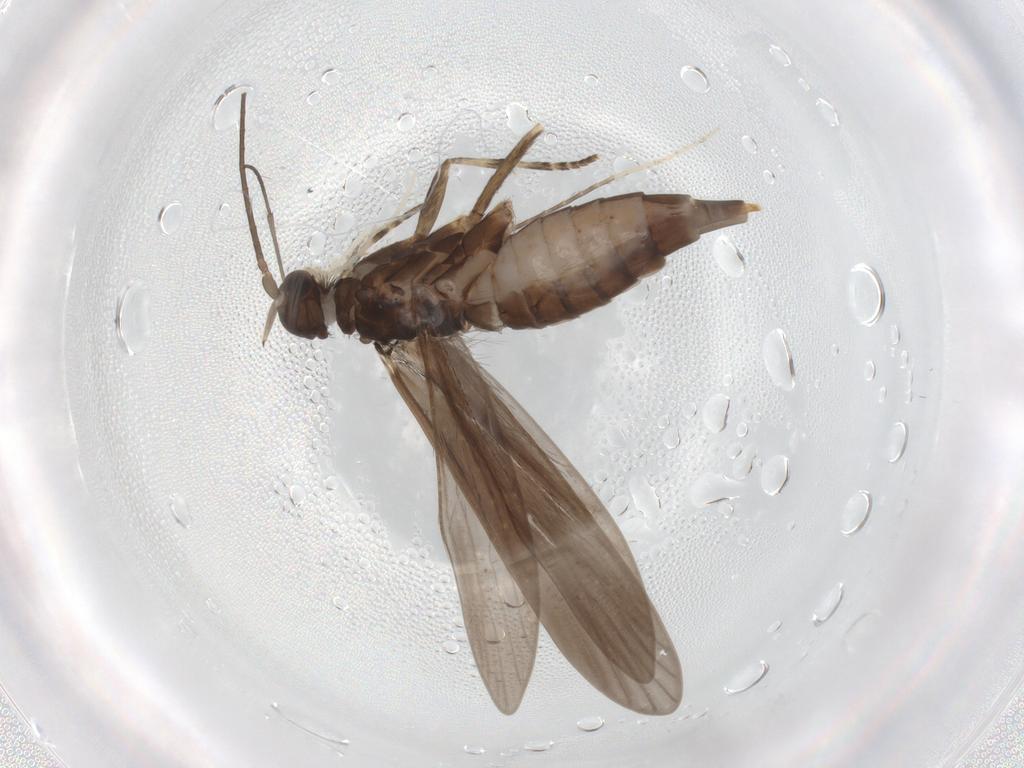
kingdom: Animalia
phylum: Arthropoda
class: Insecta
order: Trichoptera
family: Xiphocentronidae
